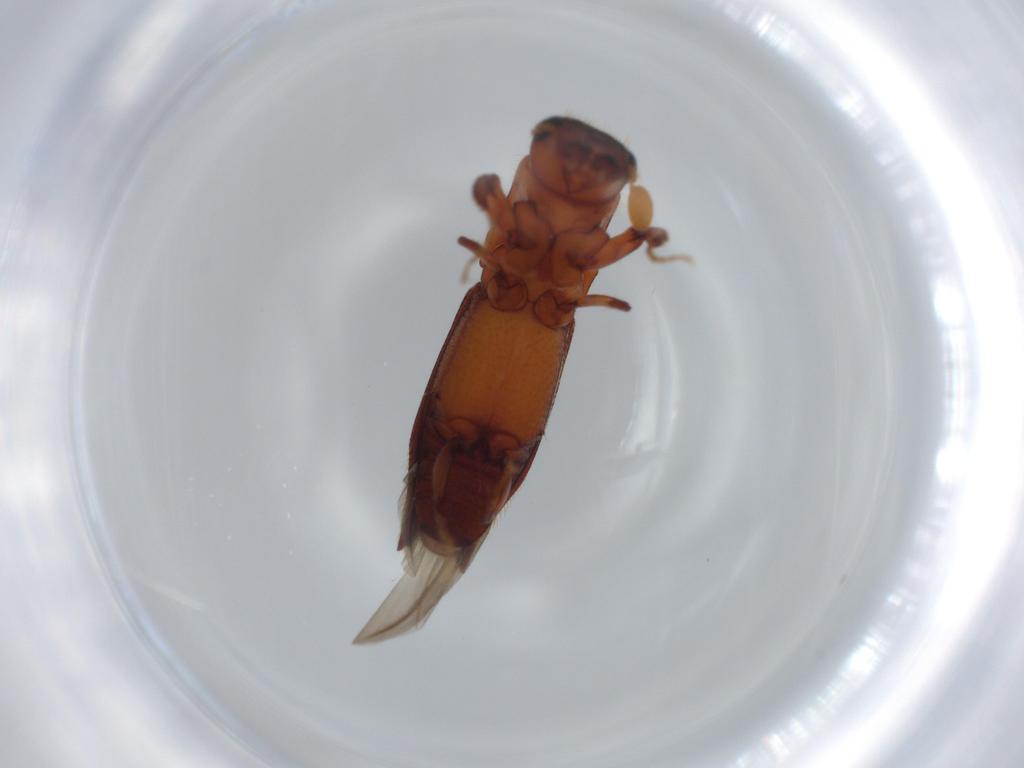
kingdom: Animalia
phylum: Arthropoda
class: Insecta
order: Coleoptera
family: Curculionidae
